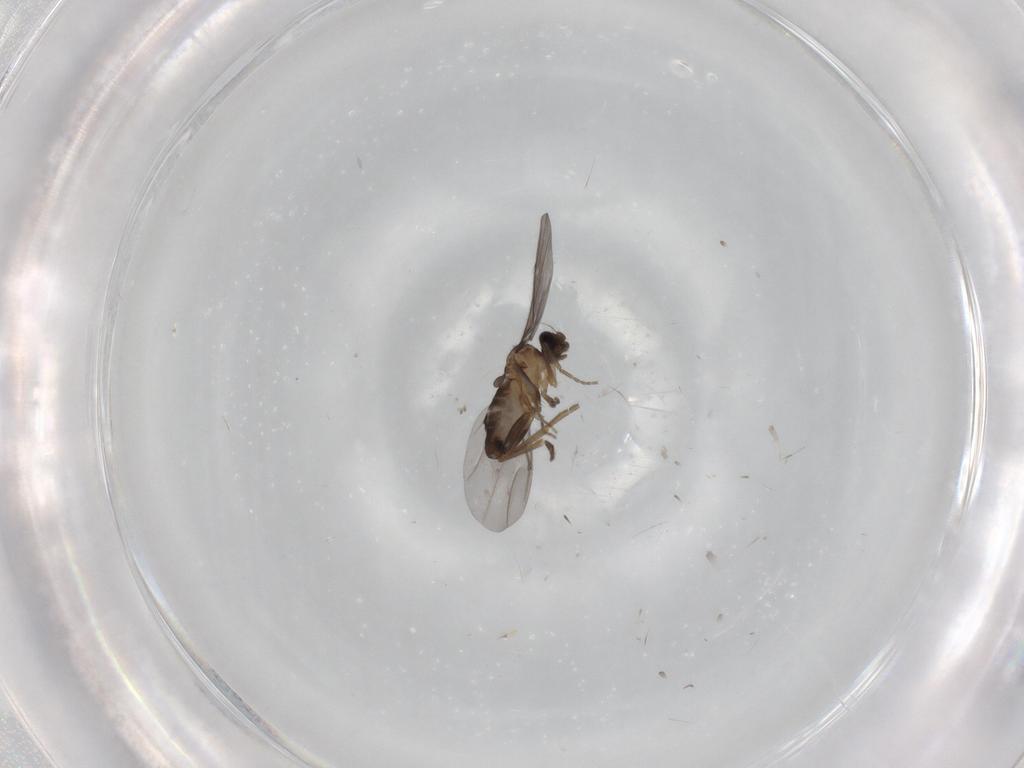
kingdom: Animalia
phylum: Arthropoda
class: Insecta
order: Diptera
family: Phoridae
